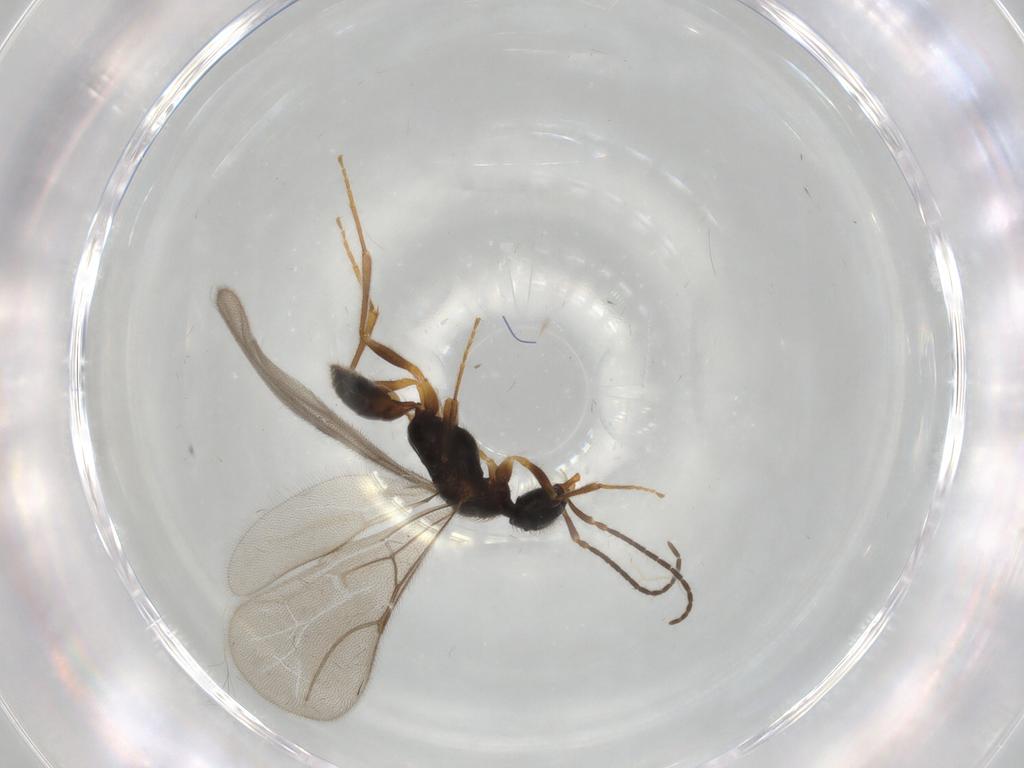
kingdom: Animalia
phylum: Arthropoda
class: Insecta
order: Hymenoptera
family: Bethylidae
